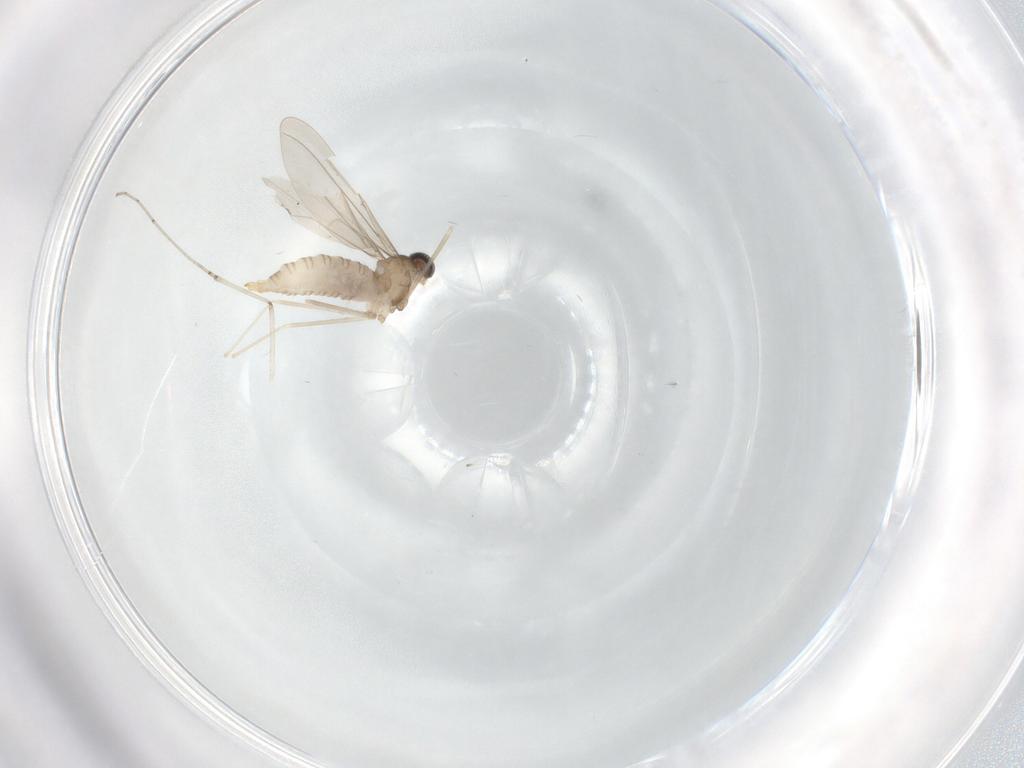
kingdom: Animalia
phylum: Arthropoda
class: Insecta
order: Diptera
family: Cecidomyiidae
